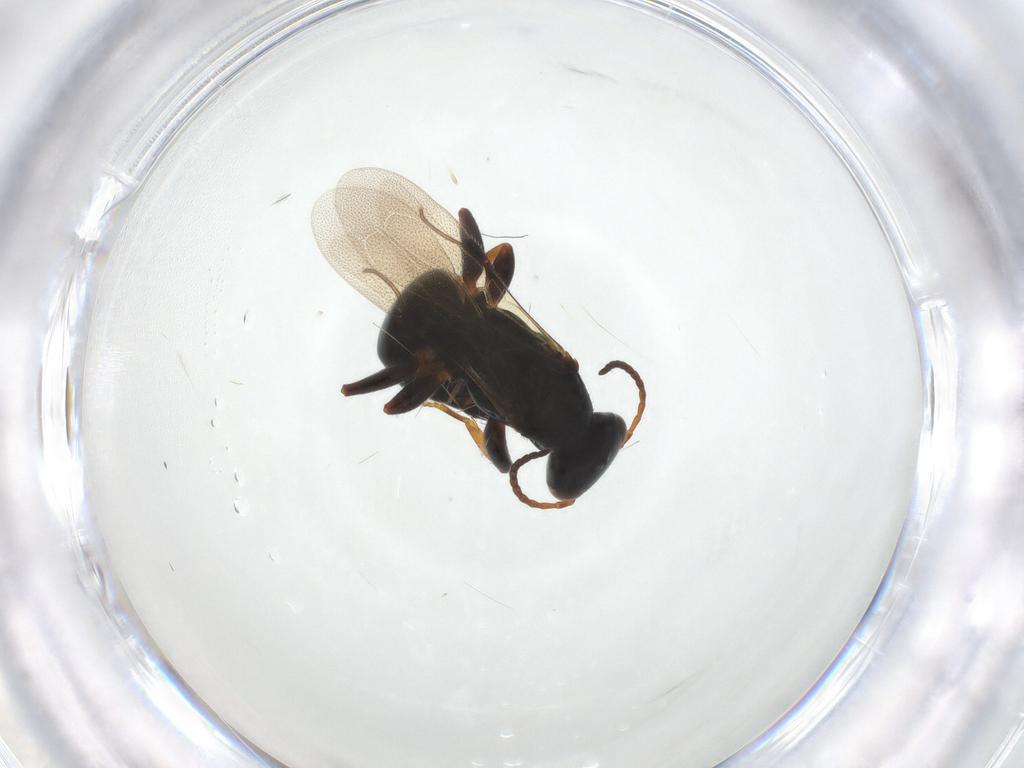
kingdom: Animalia
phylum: Arthropoda
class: Insecta
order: Hymenoptera
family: Bethylidae
